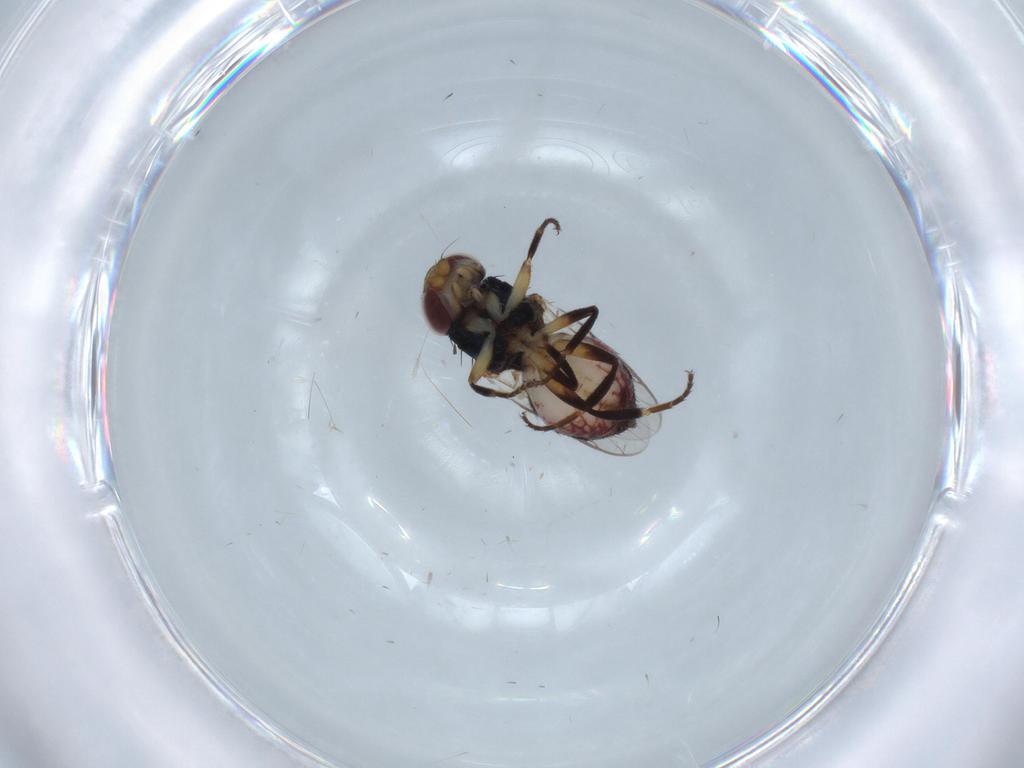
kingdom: Animalia
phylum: Arthropoda
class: Insecta
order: Diptera
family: Chloropidae
